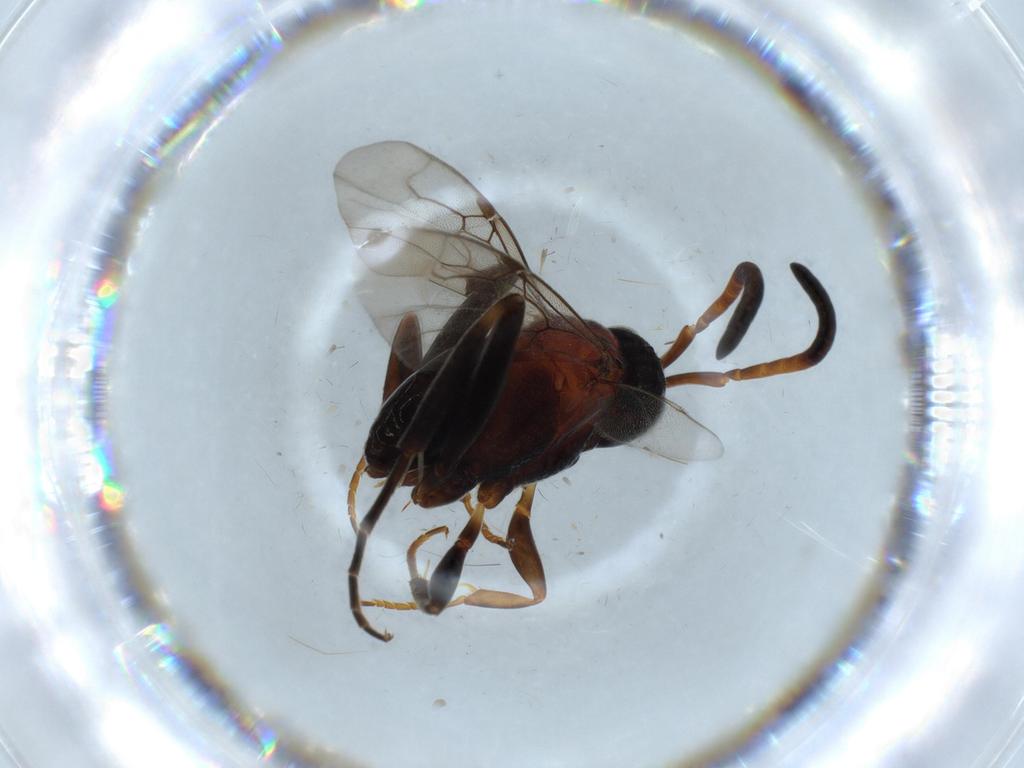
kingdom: Animalia
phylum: Arthropoda
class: Insecta
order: Hymenoptera
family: Evaniidae
